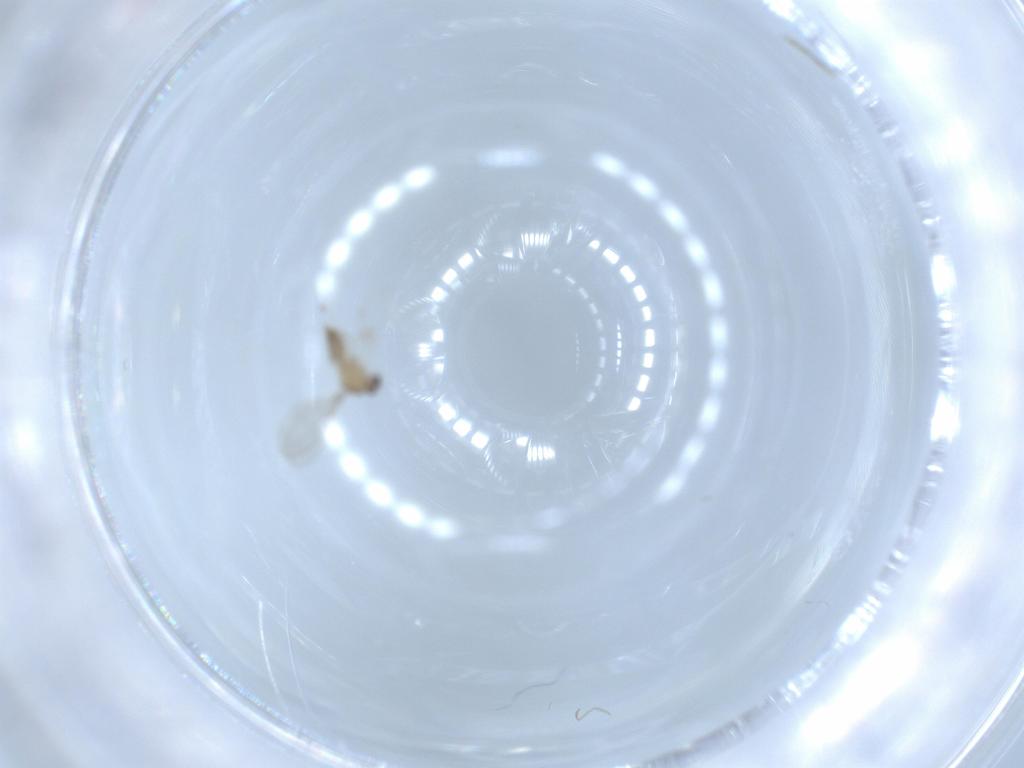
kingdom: Animalia
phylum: Arthropoda
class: Insecta
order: Diptera
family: Cecidomyiidae
